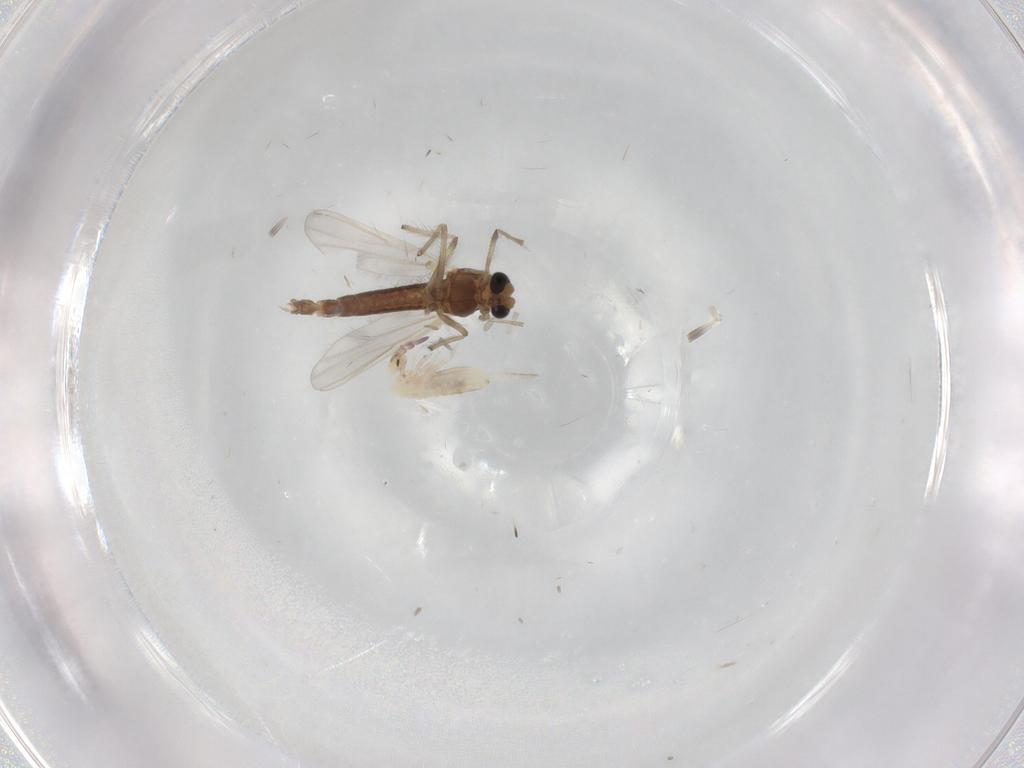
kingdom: Animalia
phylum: Arthropoda
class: Insecta
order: Diptera
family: Chironomidae
